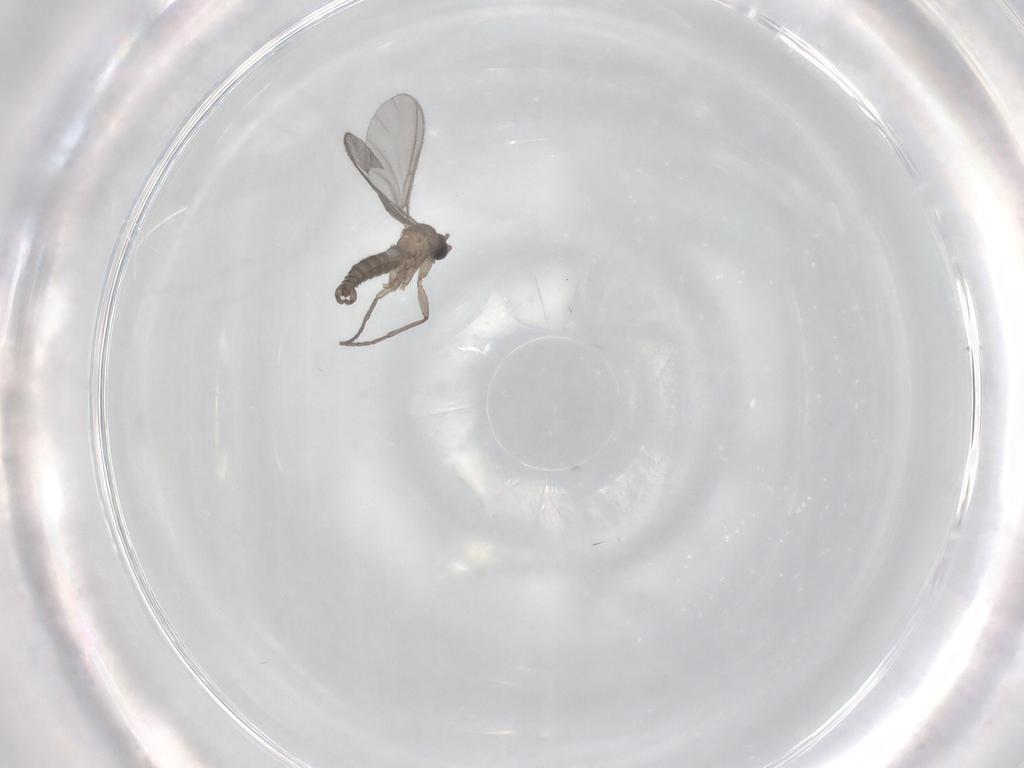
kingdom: Animalia
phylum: Arthropoda
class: Insecta
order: Diptera
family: Sciaridae
